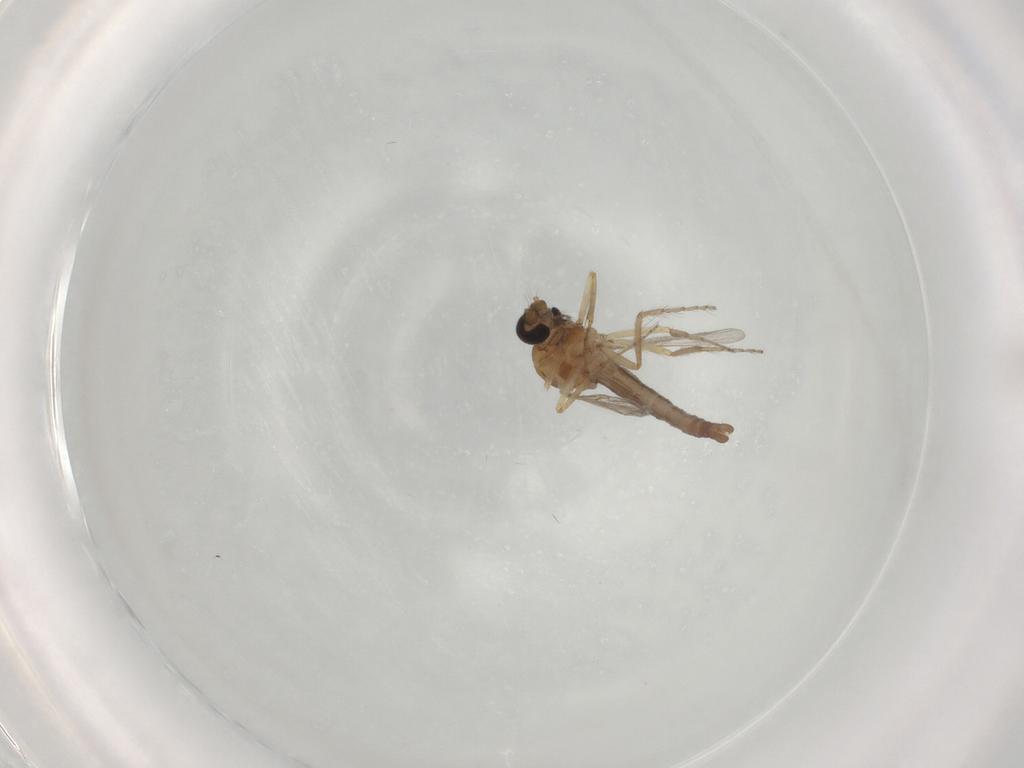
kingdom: Animalia
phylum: Arthropoda
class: Insecta
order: Diptera
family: Ceratopogonidae
